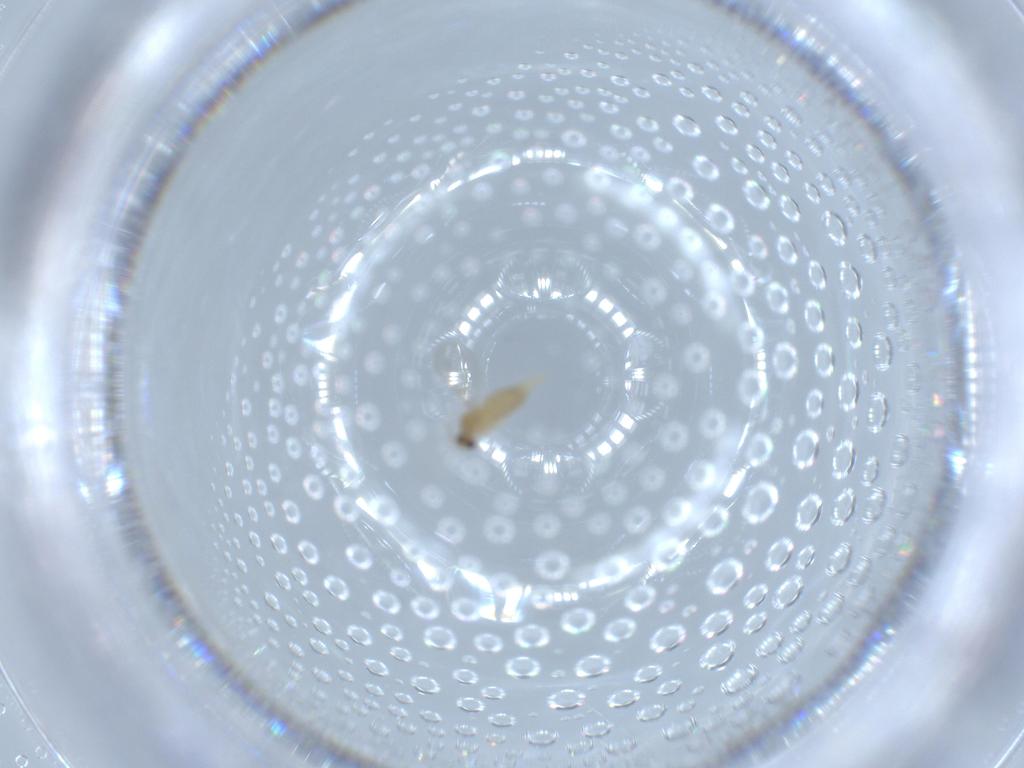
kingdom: Animalia
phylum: Arthropoda
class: Insecta
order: Diptera
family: Cecidomyiidae
